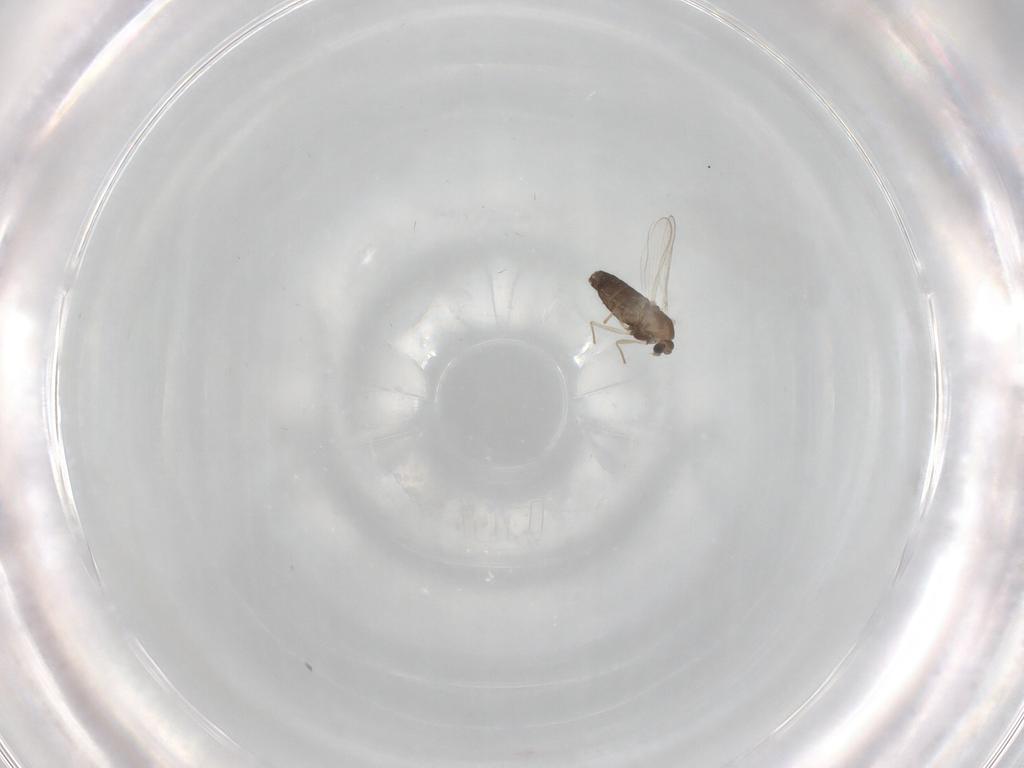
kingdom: Animalia
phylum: Arthropoda
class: Insecta
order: Diptera
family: Chironomidae
